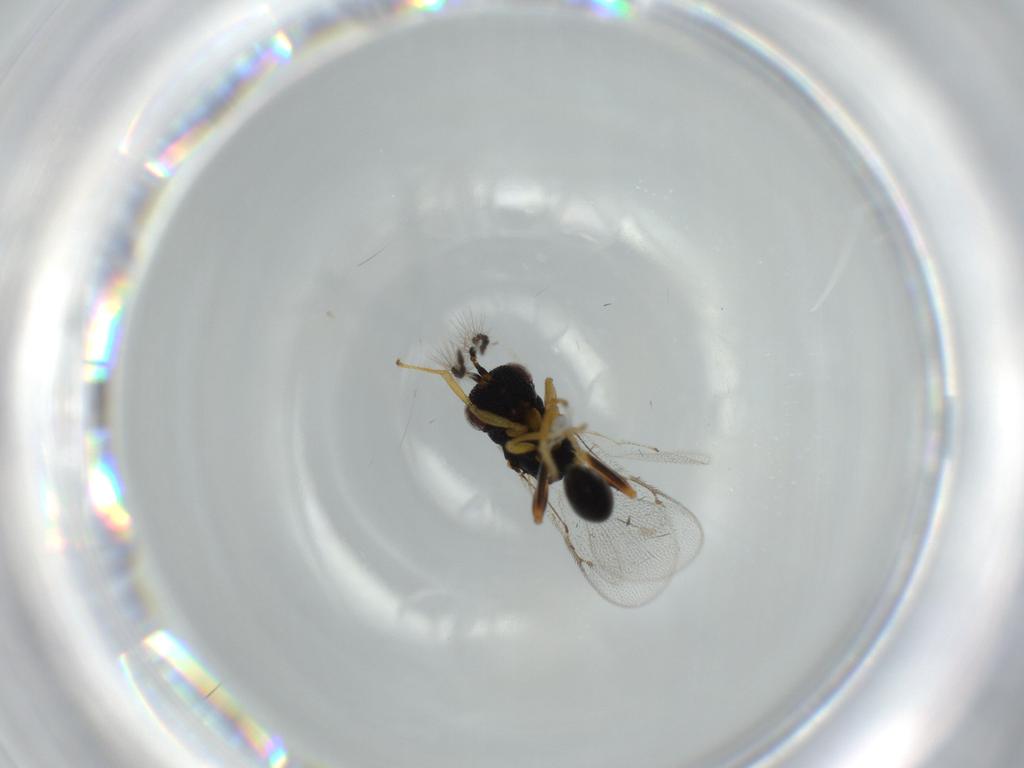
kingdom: Animalia
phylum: Arthropoda
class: Insecta
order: Hymenoptera
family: Eurytomidae
